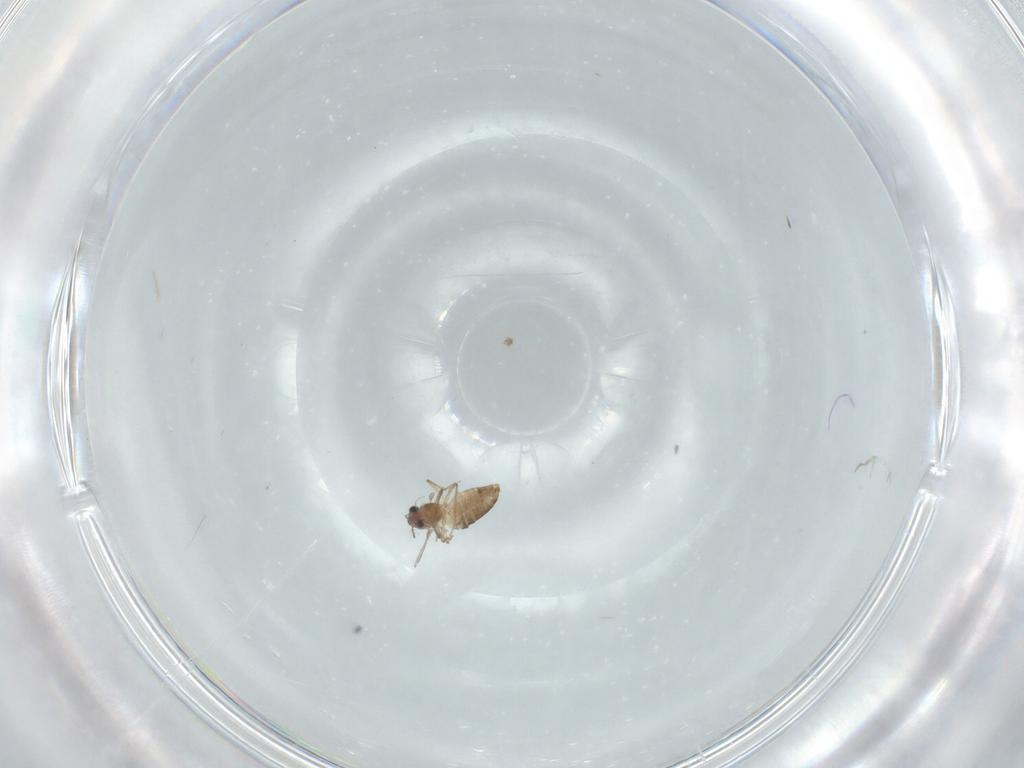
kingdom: Animalia
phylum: Arthropoda
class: Insecta
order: Diptera
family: Chironomidae
